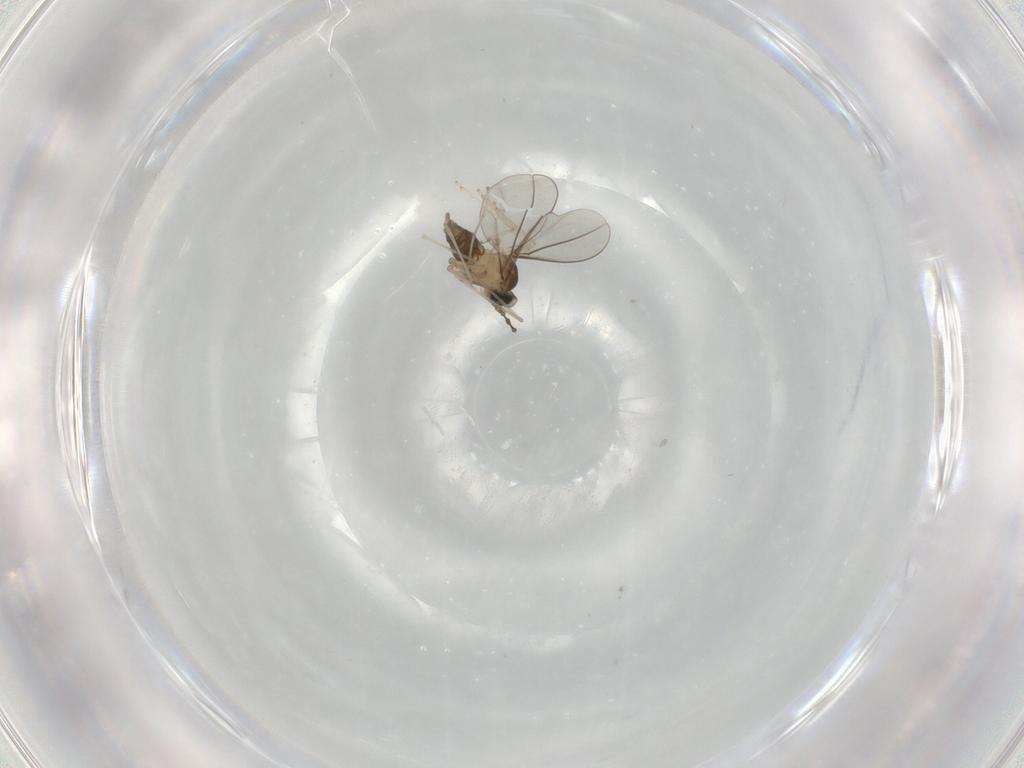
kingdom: Animalia
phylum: Arthropoda
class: Insecta
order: Diptera
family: Cecidomyiidae
